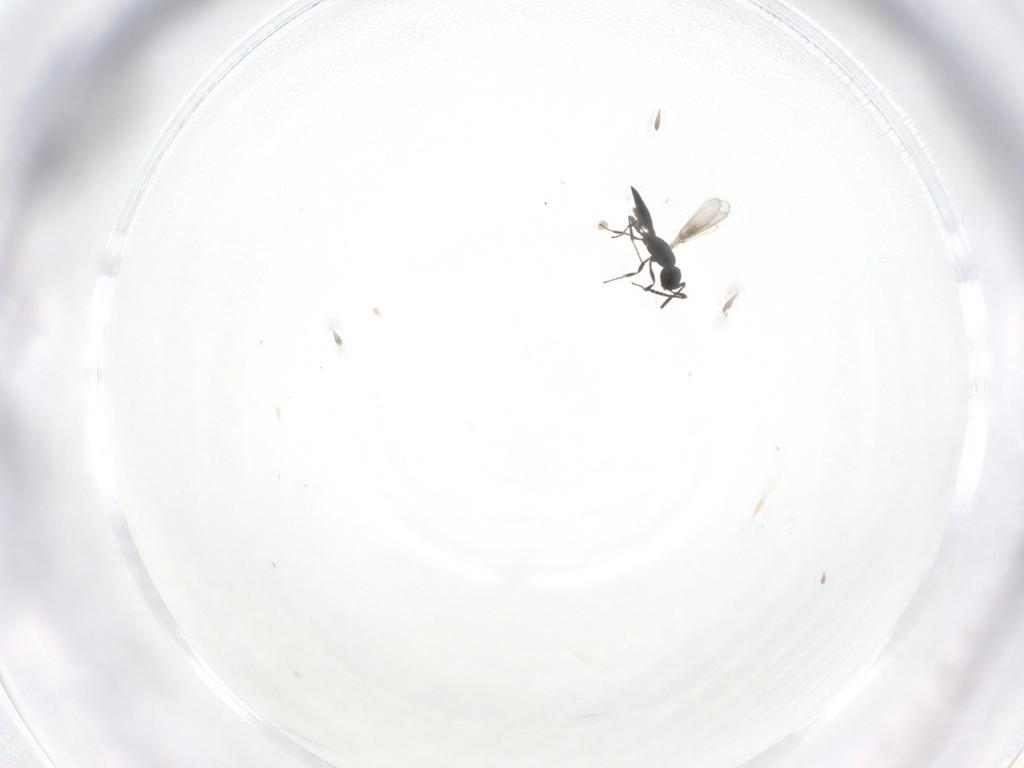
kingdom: Animalia
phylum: Arthropoda
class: Insecta
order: Hymenoptera
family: Scelionidae
